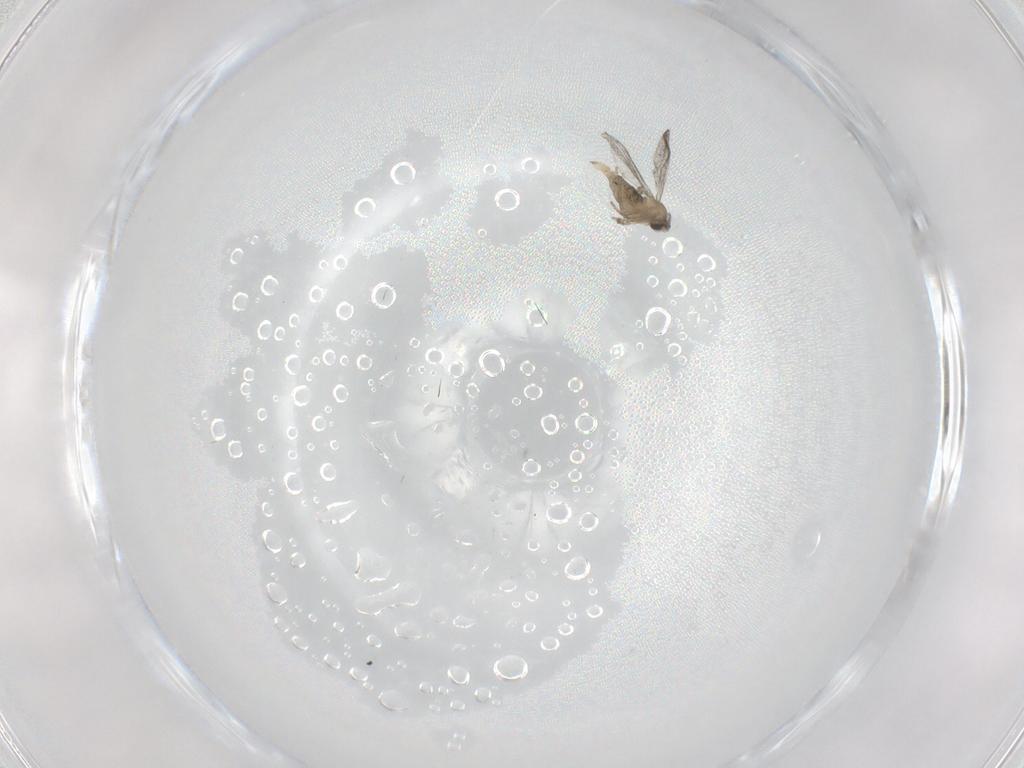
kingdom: Animalia
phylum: Arthropoda
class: Insecta
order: Diptera
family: Cecidomyiidae
